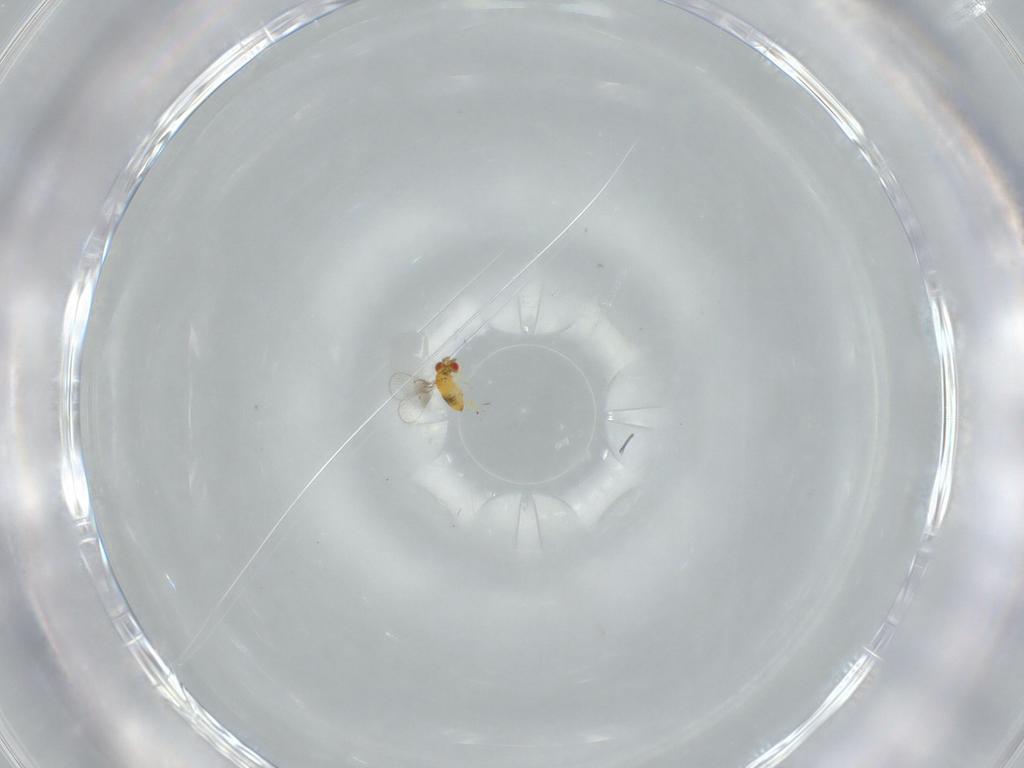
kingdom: Animalia
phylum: Arthropoda
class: Insecta
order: Hymenoptera
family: Trichogrammatidae
